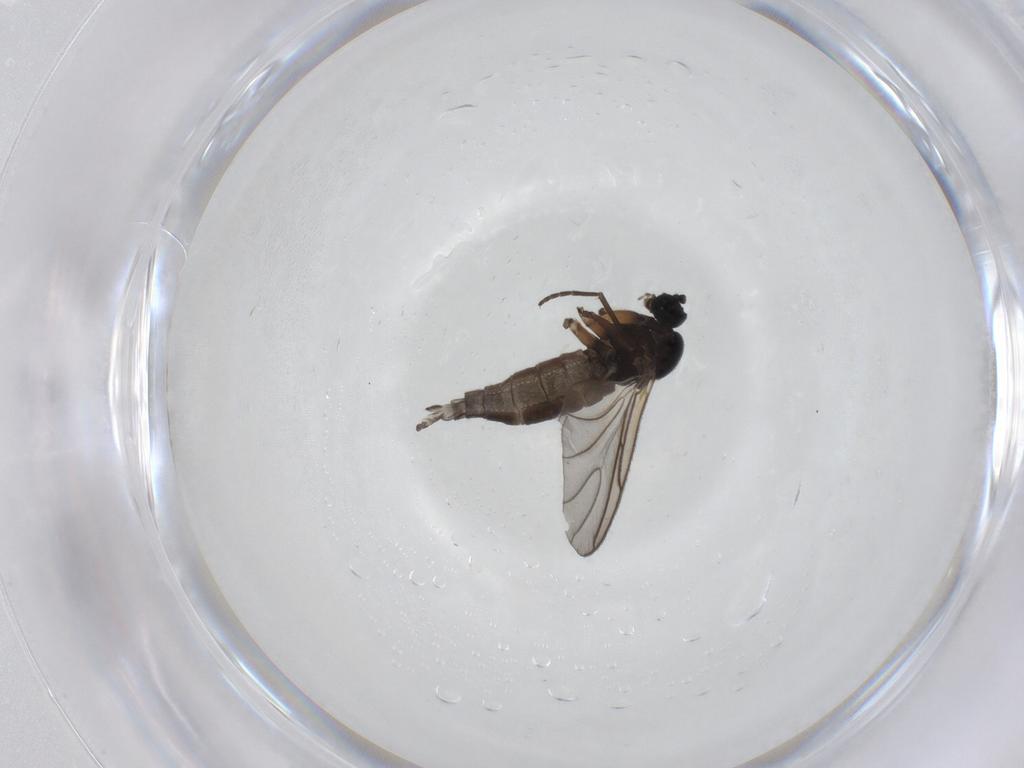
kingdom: Animalia
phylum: Arthropoda
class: Insecta
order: Diptera
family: Sciaridae
